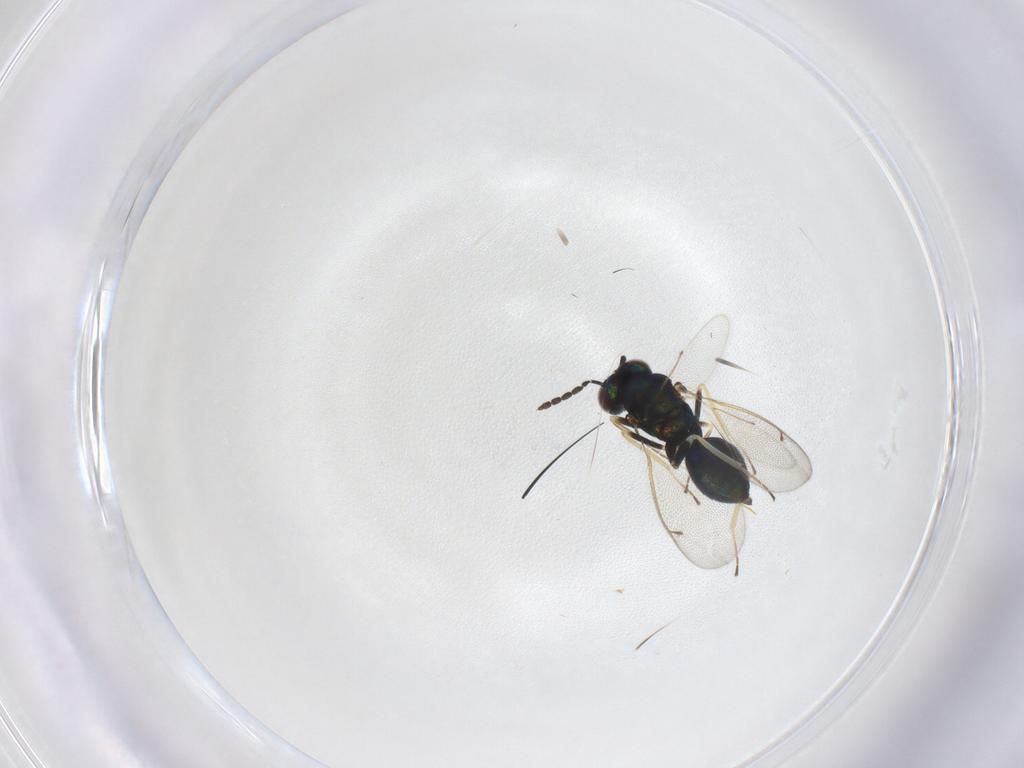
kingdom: Animalia
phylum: Arthropoda
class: Insecta
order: Hymenoptera
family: Eulophidae
